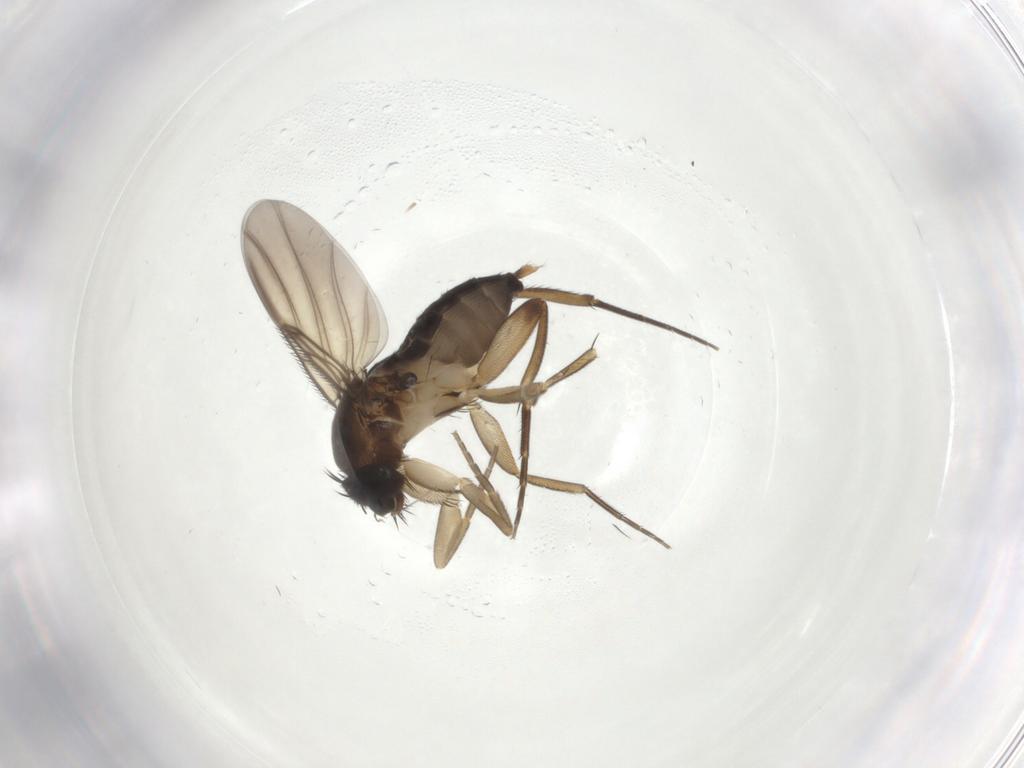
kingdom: Animalia
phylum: Arthropoda
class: Insecta
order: Diptera
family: Phoridae
